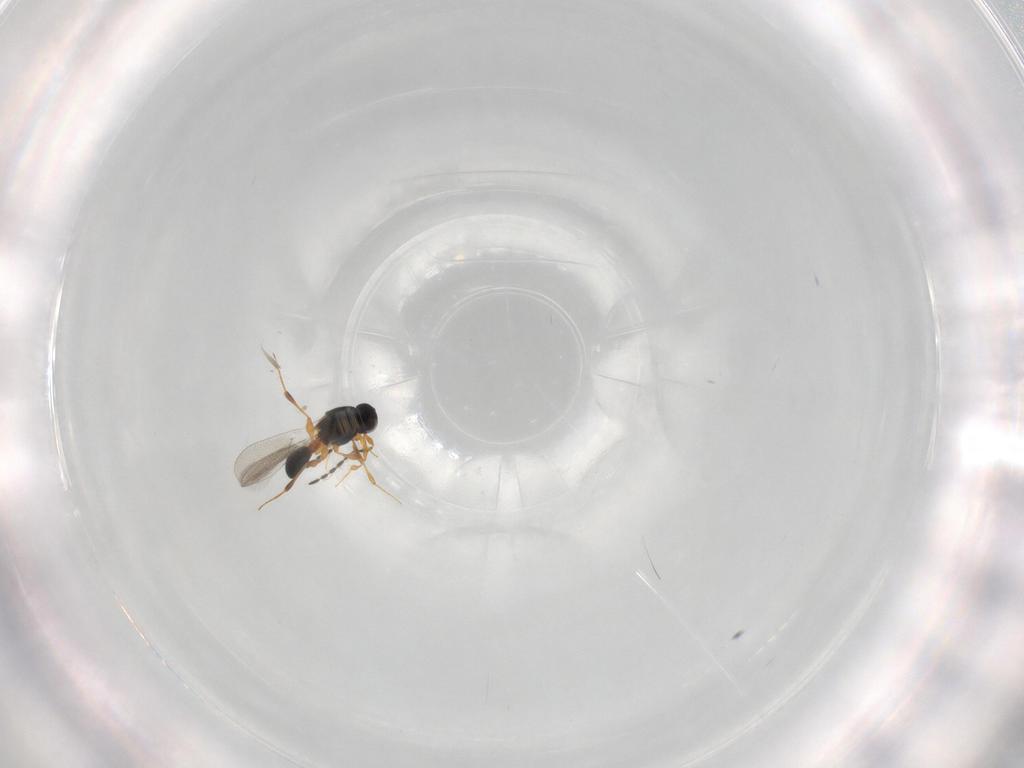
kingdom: Animalia
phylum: Arthropoda
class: Insecta
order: Hymenoptera
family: Platygastridae
